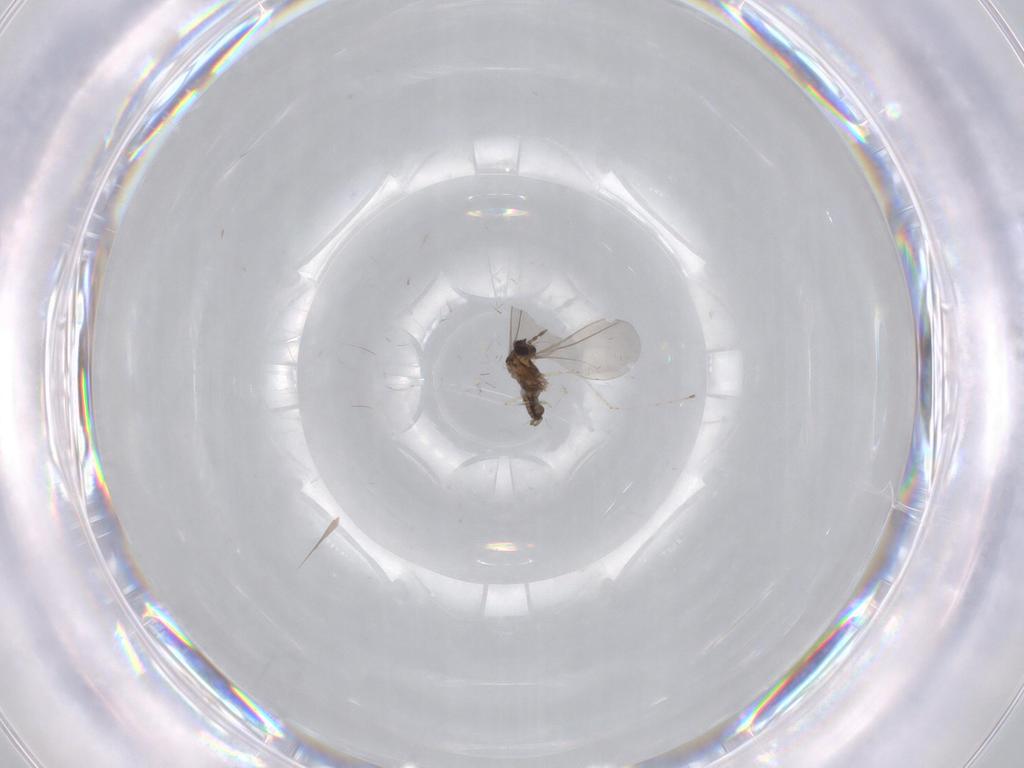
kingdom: Animalia
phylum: Arthropoda
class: Insecta
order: Diptera
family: Cecidomyiidae
